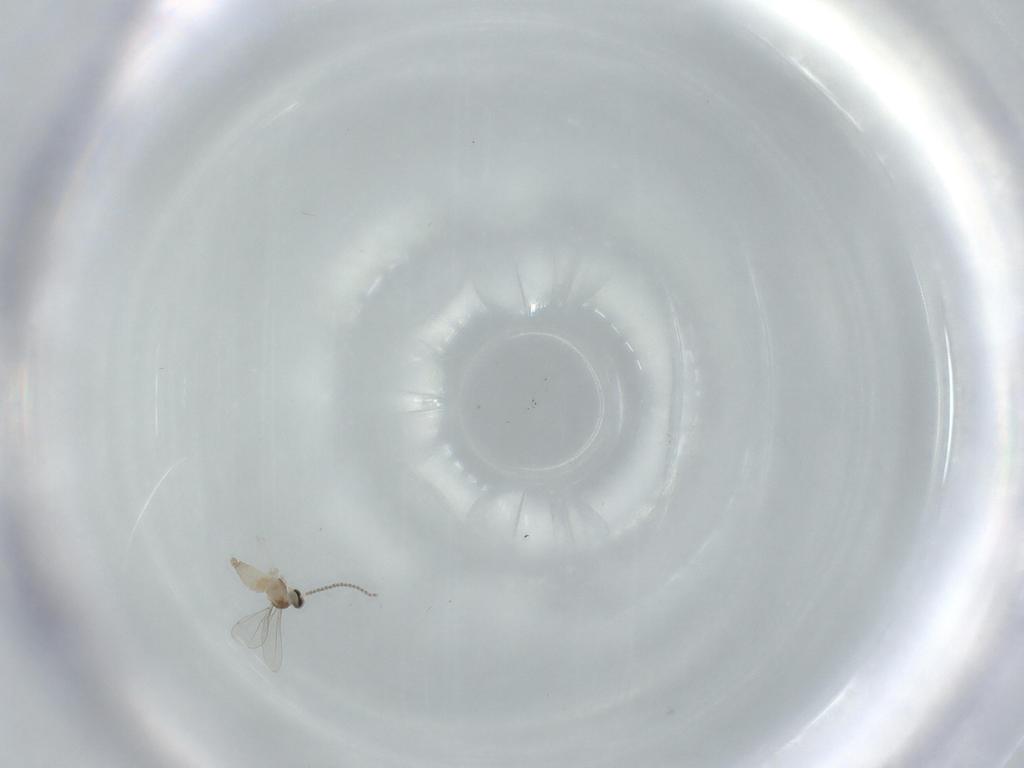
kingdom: Animalia
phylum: Arthropoda
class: Insecta
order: Diptera
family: Cecidomyiidae
